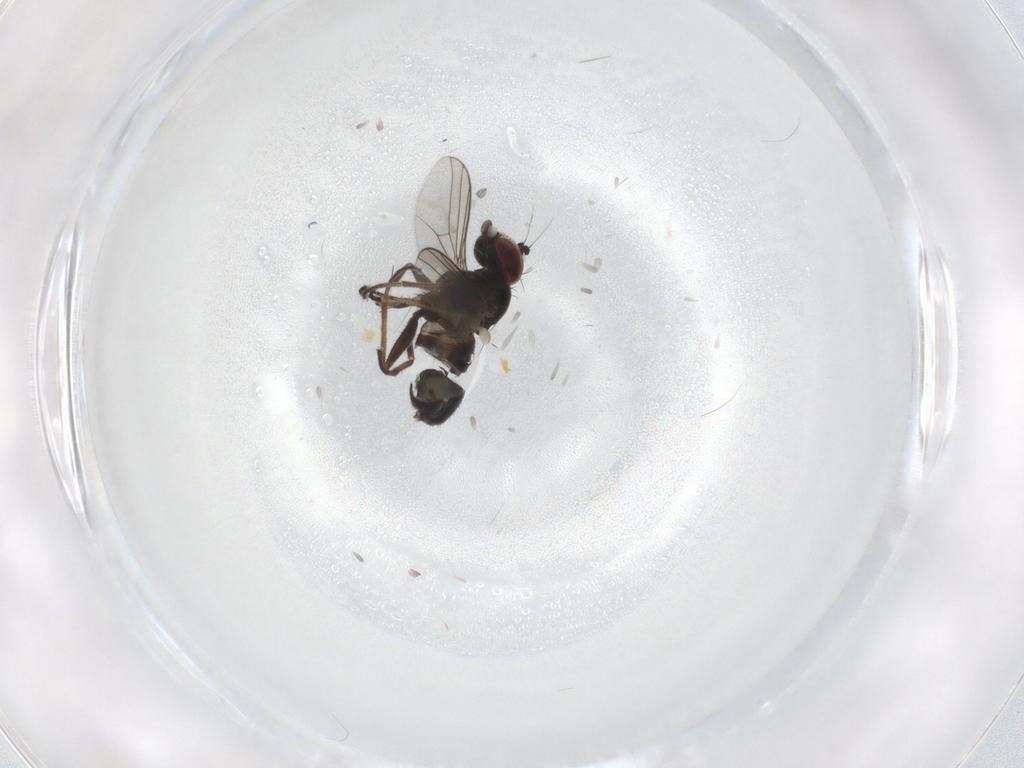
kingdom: Animalia
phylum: Arthropoda
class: Insecta
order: Diptera
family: Dolichopodidae
